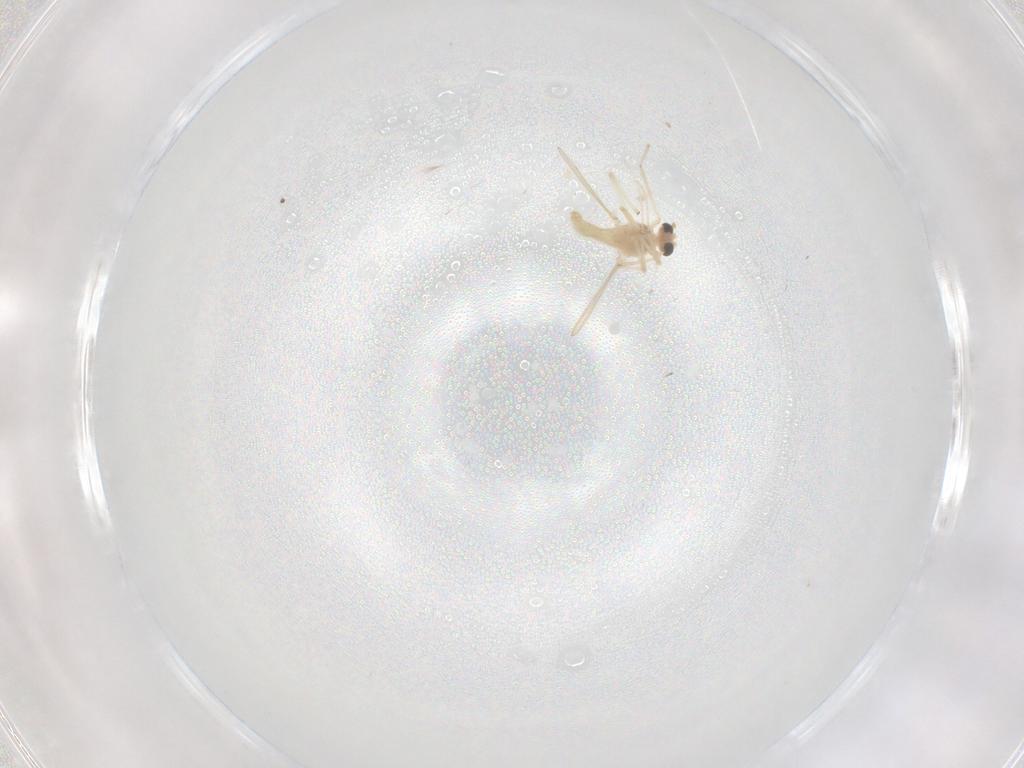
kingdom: Animalia
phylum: Arthropoda
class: Insecta
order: Diptera
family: Chironomidae
